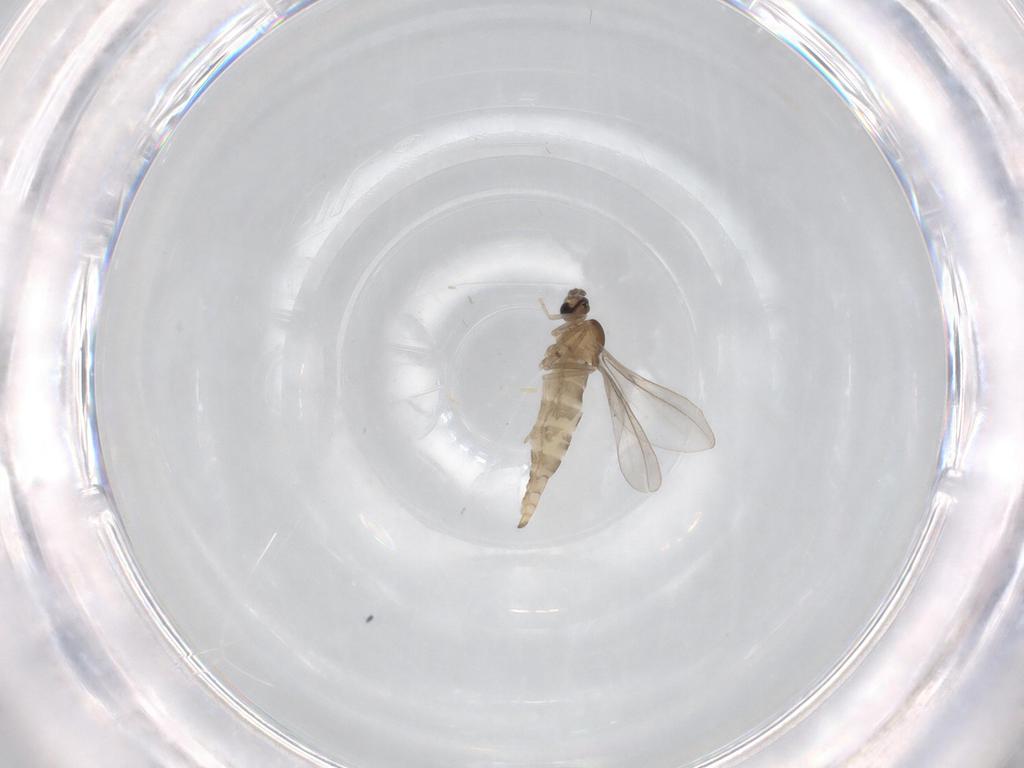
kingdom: Animalia
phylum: Arthropoda
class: Insecta
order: Diptera
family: Cecidomyiidae
